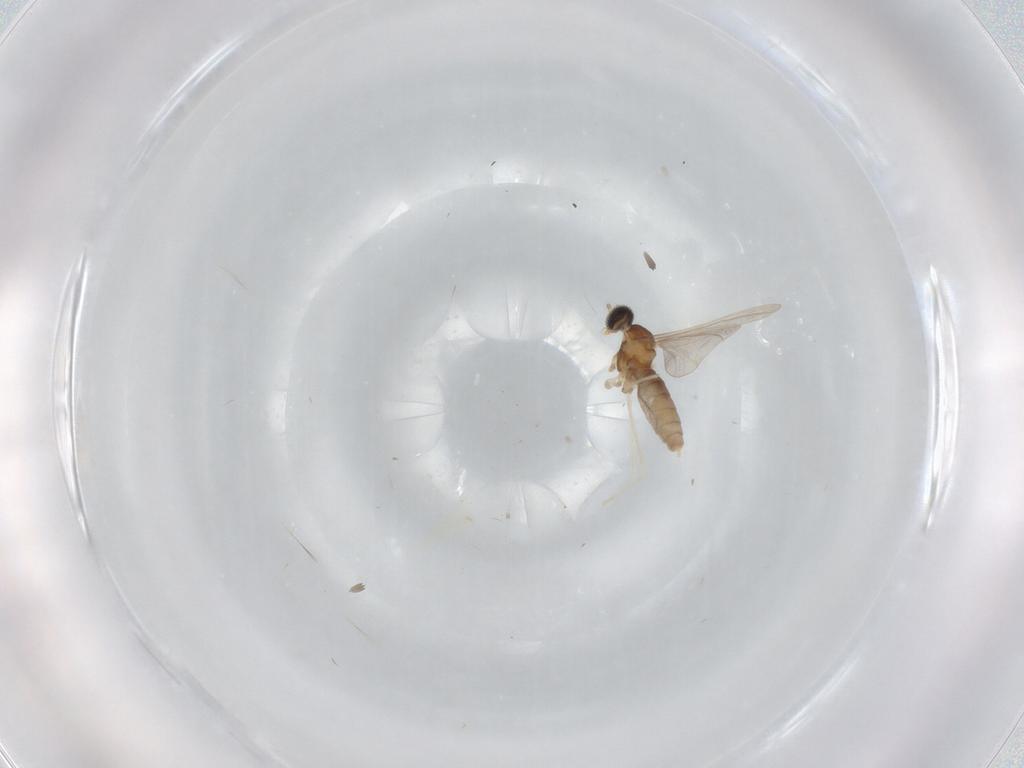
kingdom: Animalia
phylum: Arthropoda
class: Insecta
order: Diptera
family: Cecidomyiidae
